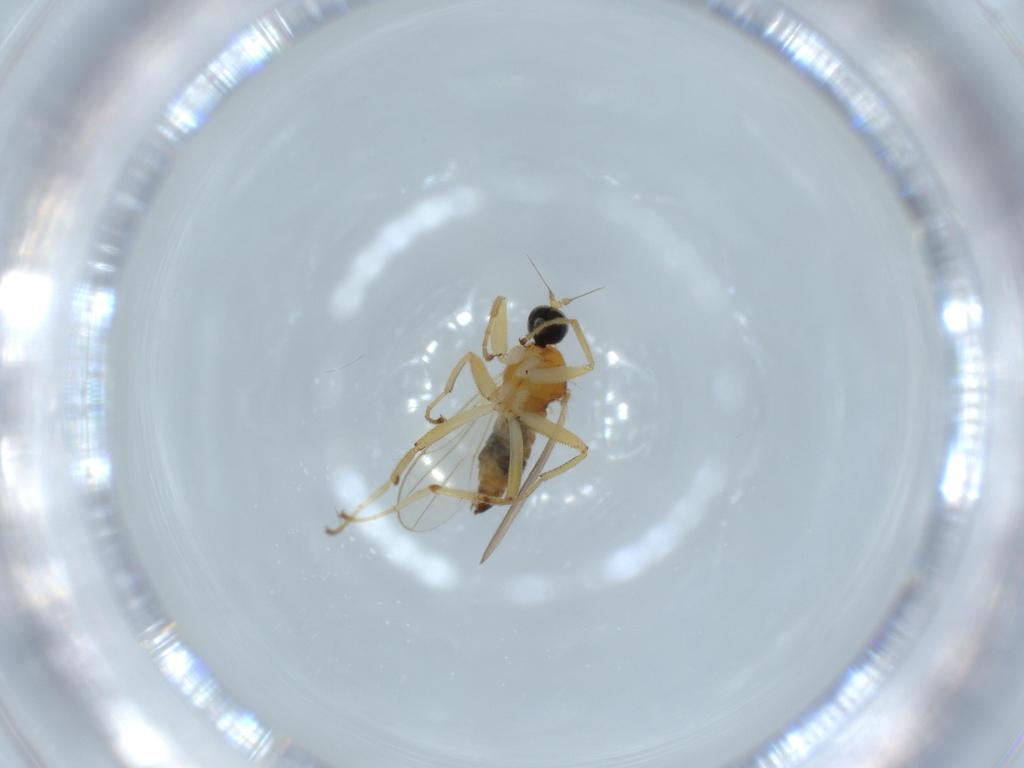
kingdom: Animalia
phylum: Arthropoda
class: Insecta
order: Diptera
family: Hybotidae
